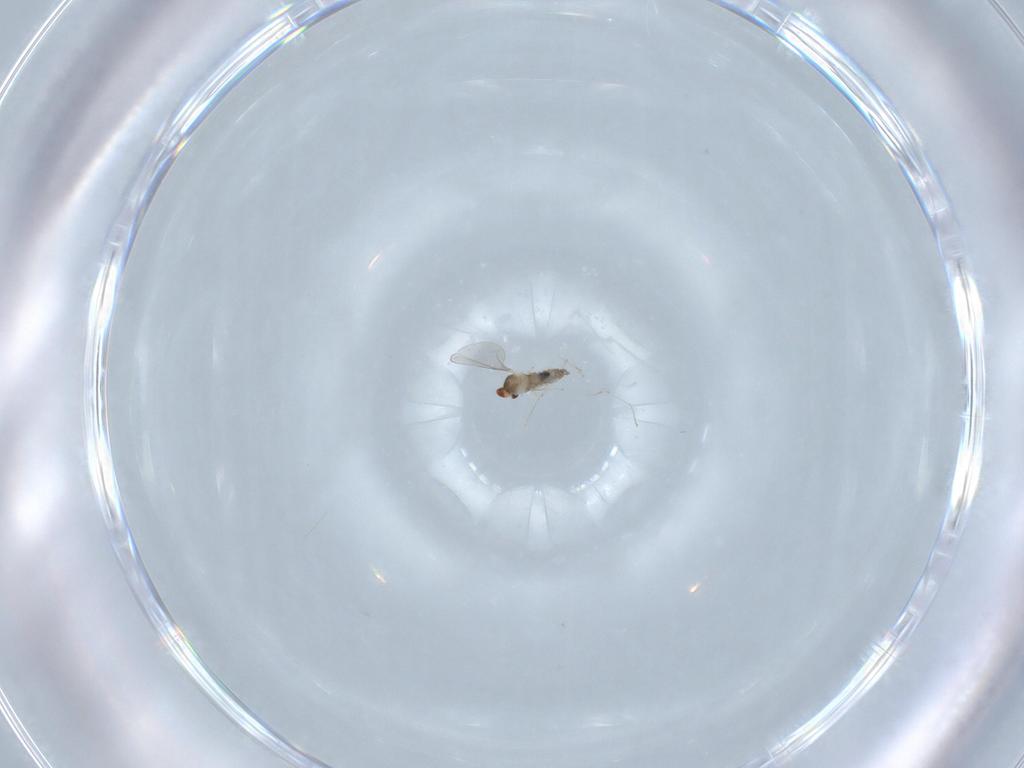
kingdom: Animalia
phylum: Arthropoda
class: Insecta
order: Diptera
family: Cecidomyiidae
